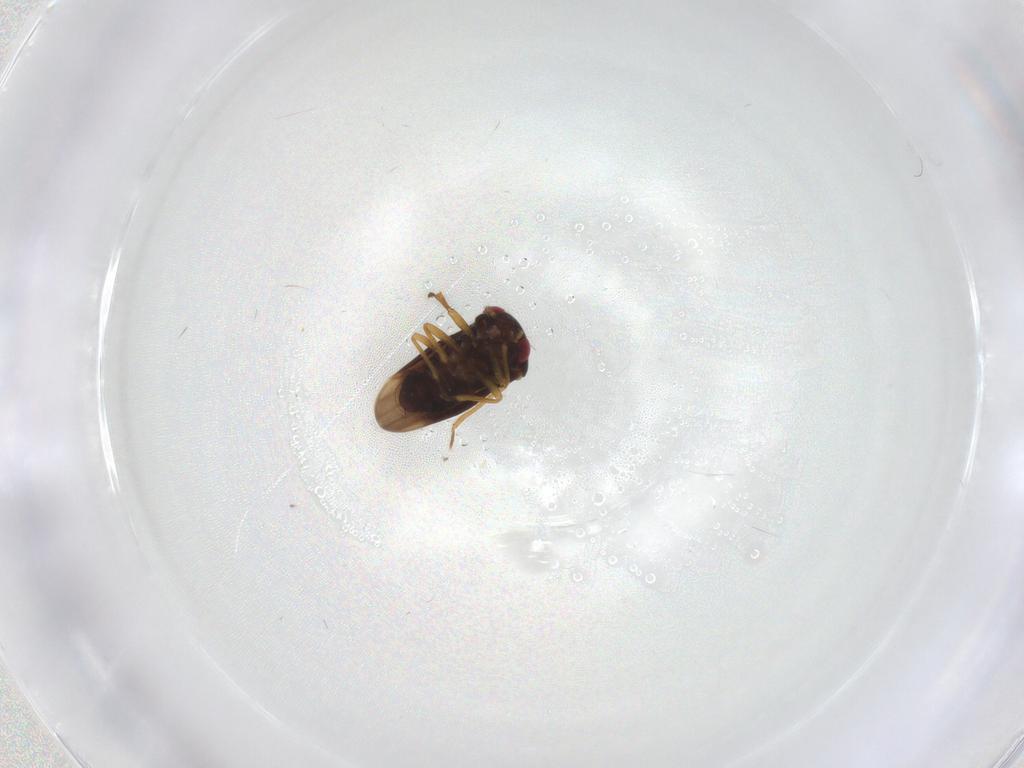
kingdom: Animalia
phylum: Arthropoda
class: Insecta
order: Hemiptera
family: Schizopteridae
